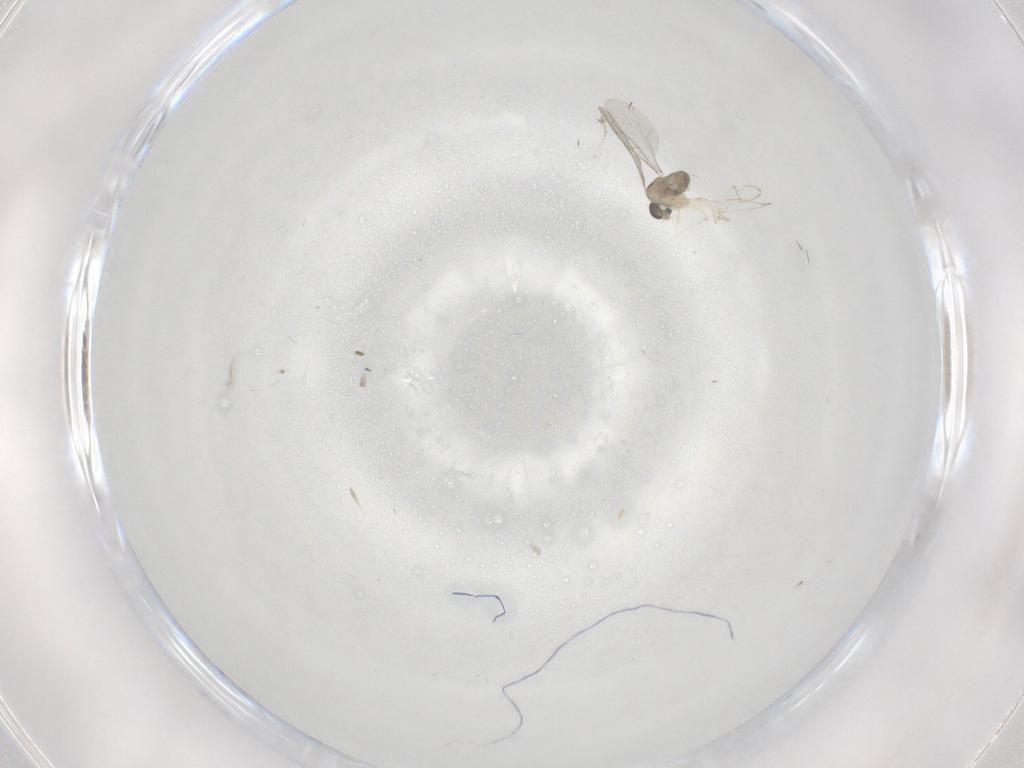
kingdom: Animalia
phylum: Arthropoda
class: Insecta
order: Diptera
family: Cecidomyiidae
